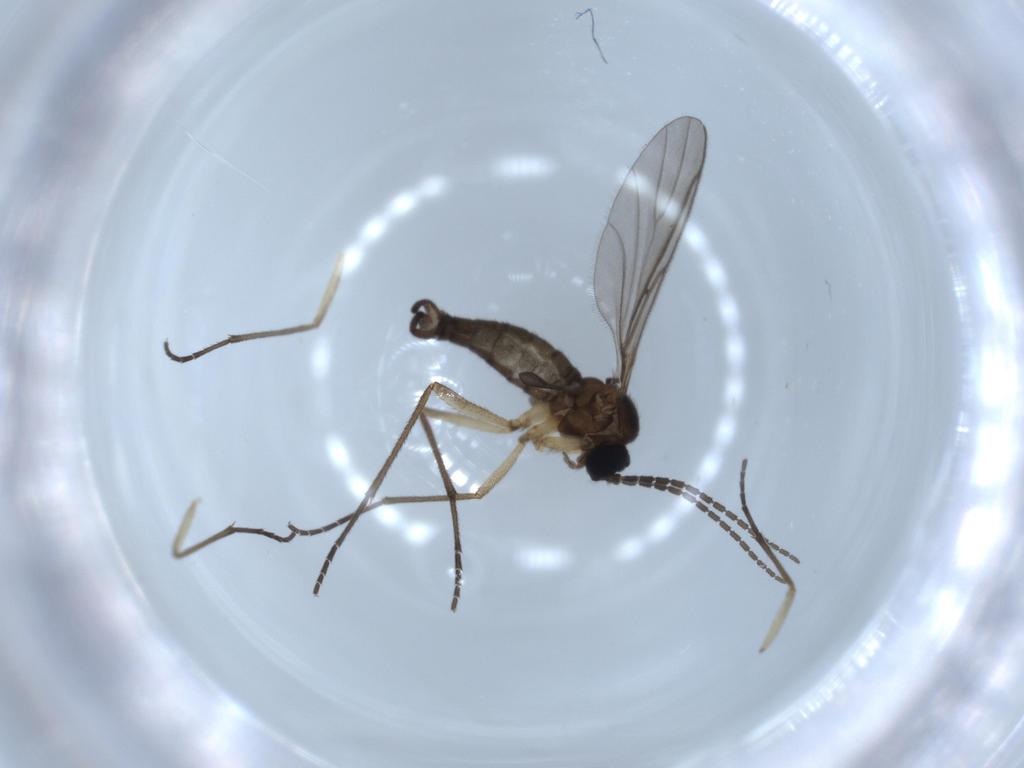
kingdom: Animalia
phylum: Arthropoda
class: Insecta
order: Diptera
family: Sciaridae
